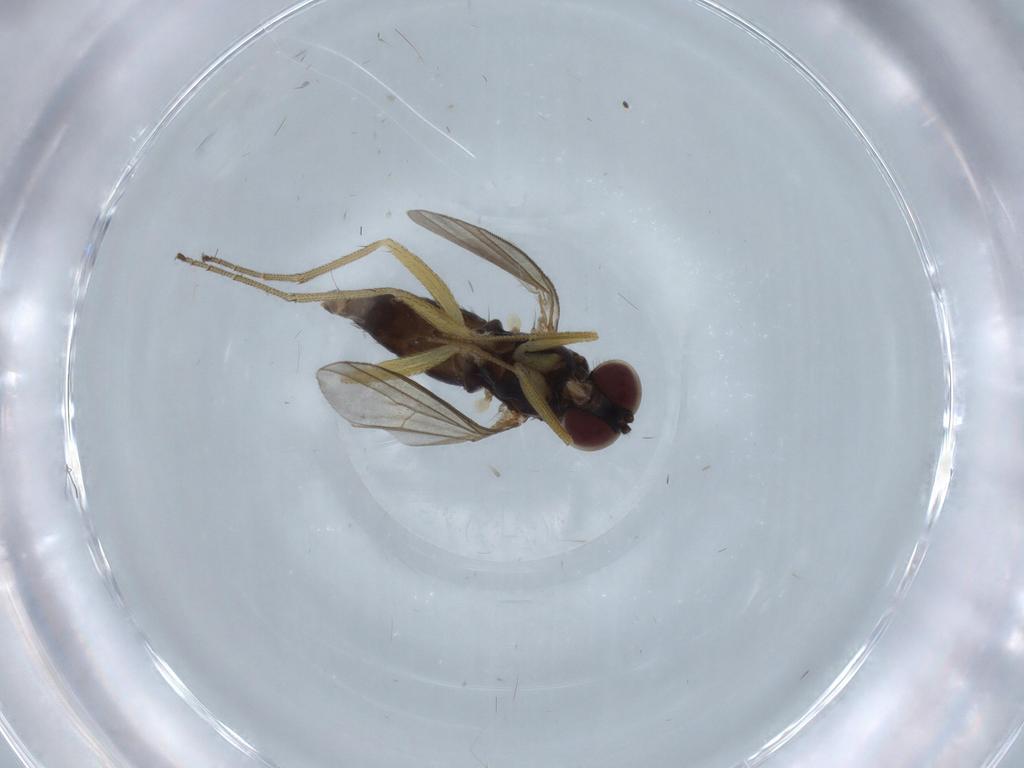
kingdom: Animalia
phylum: Arthropoda
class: Insecta
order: Diptera
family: Dolichopodidae
